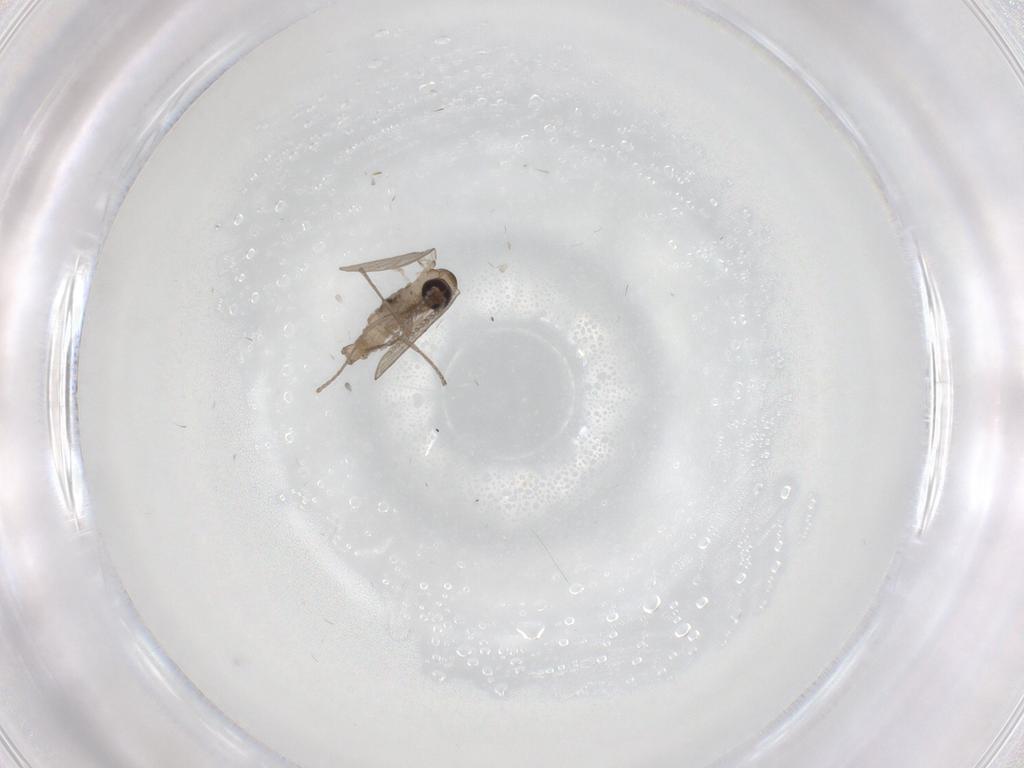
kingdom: Animalia
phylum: Arthropoda
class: Insecta
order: Diptera
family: Psychodidae
